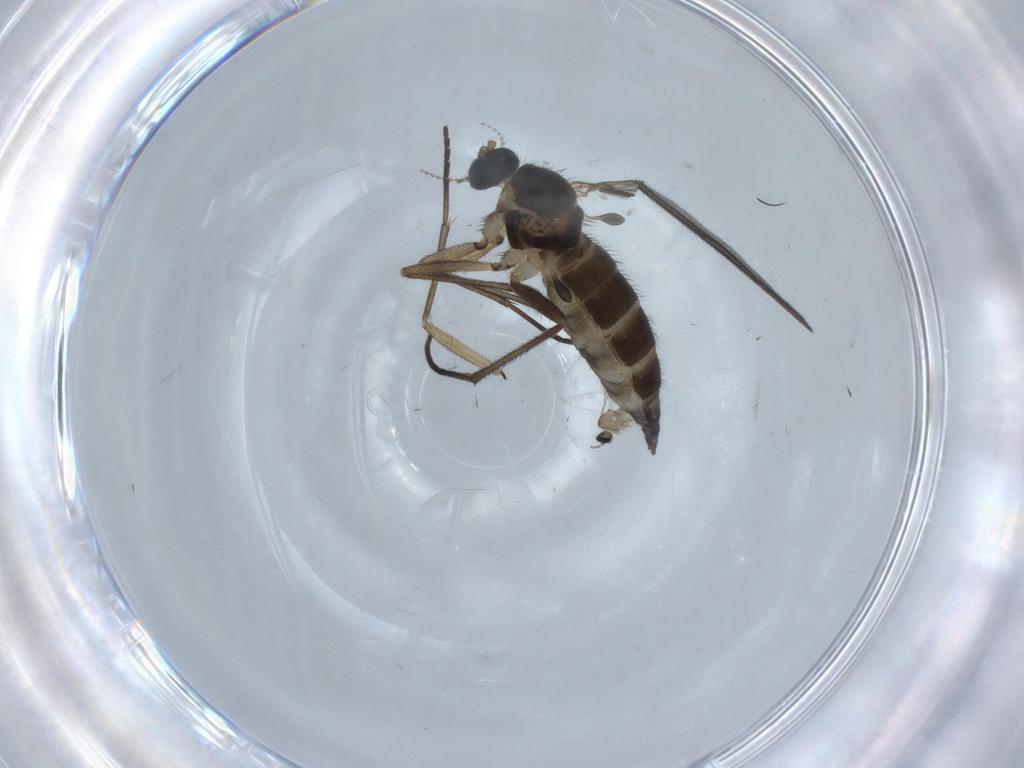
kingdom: Animalia
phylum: Arthropoda
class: Insecta
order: Diptera
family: Sciaridae
